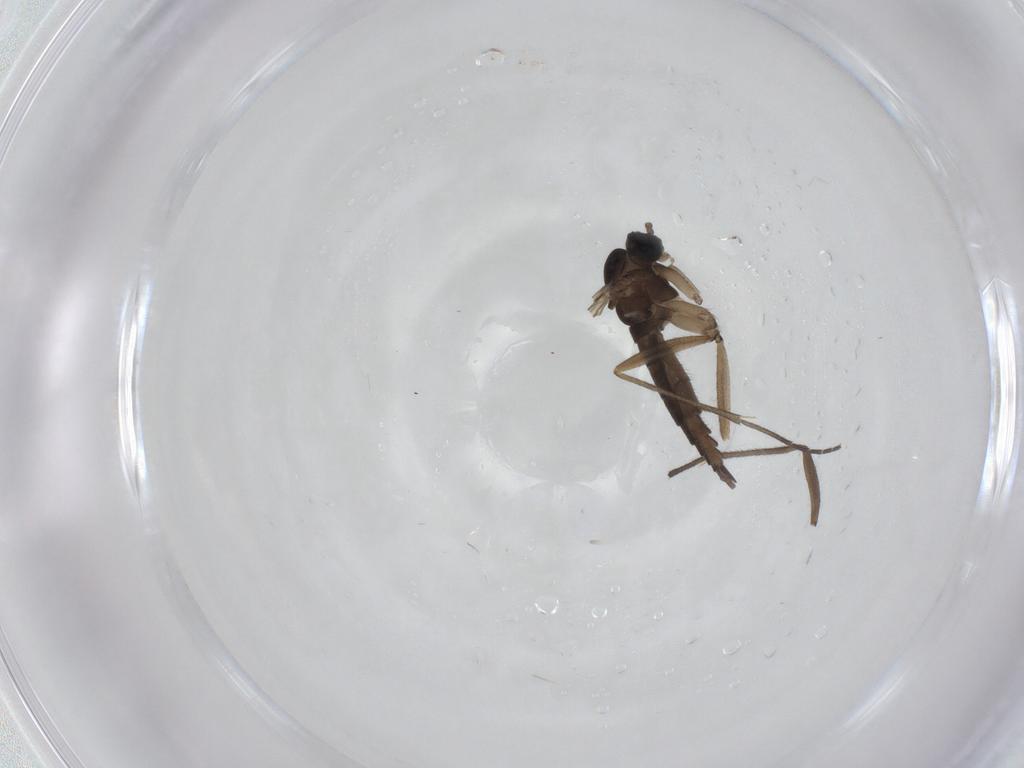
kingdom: Animalia
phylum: Arthropoda
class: Insecta
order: Diptera
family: Sciaridae
